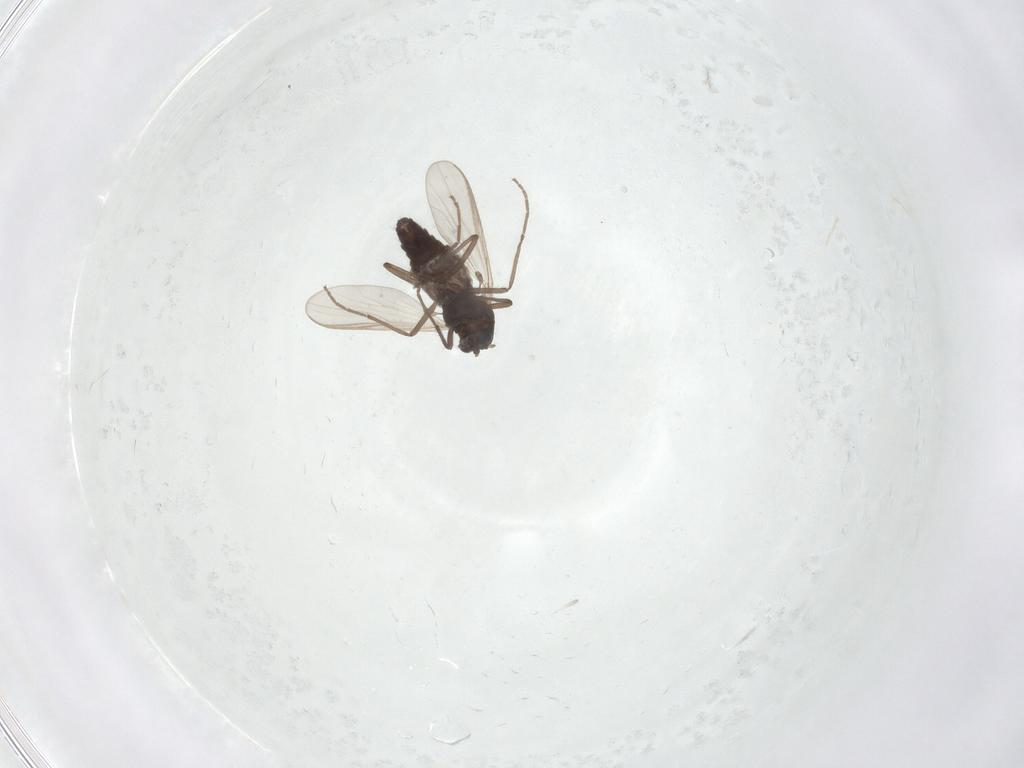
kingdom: Animalia
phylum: Arthropoda
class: Insecta
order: Diptera
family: Chironomidae
